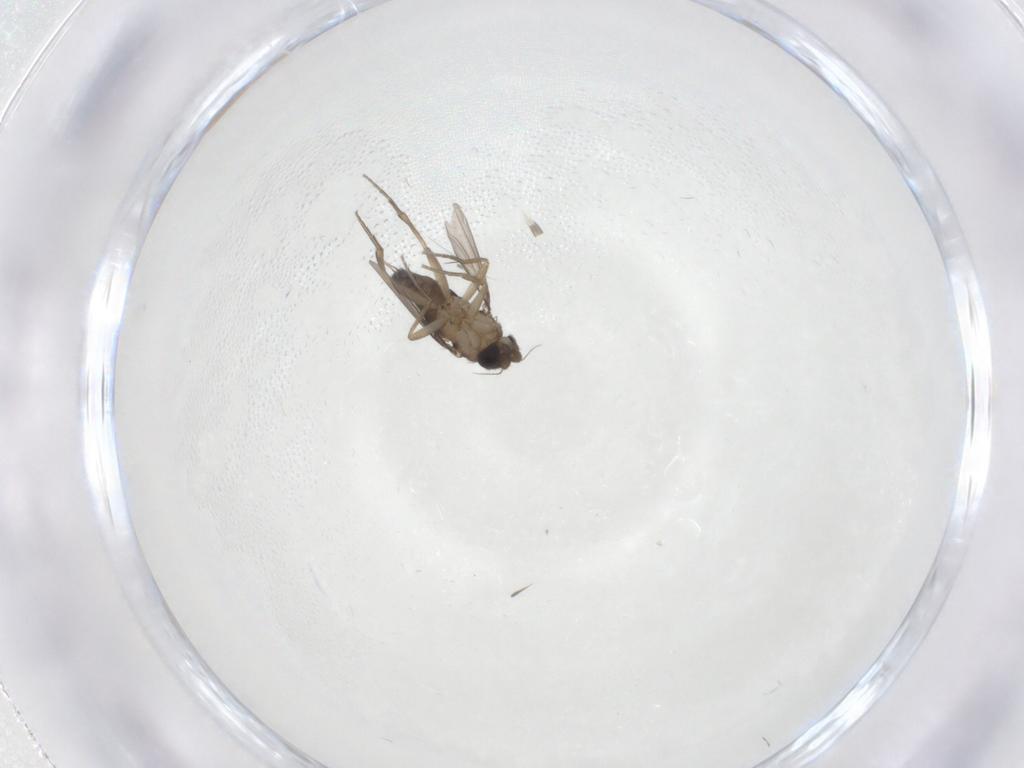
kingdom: Animalia
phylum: Arthropoda
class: Insecta
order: Diptera
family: Phoridae
